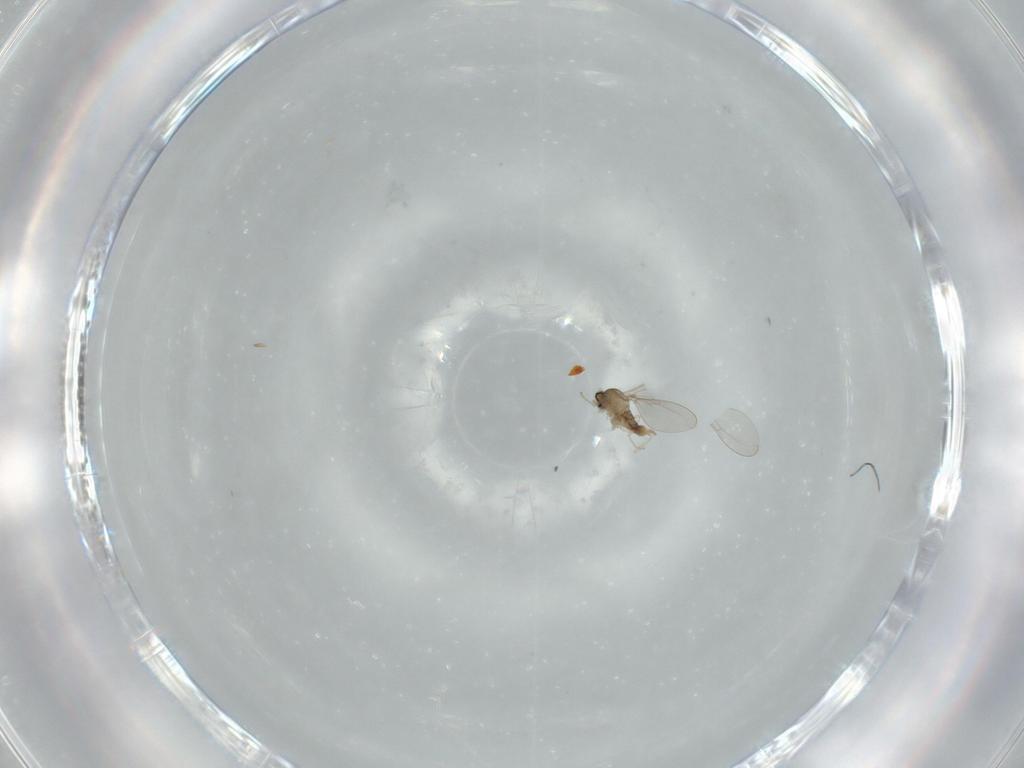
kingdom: Animalia
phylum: Arthropoda
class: Insecta
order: Diptera
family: Cecidomyiidae
